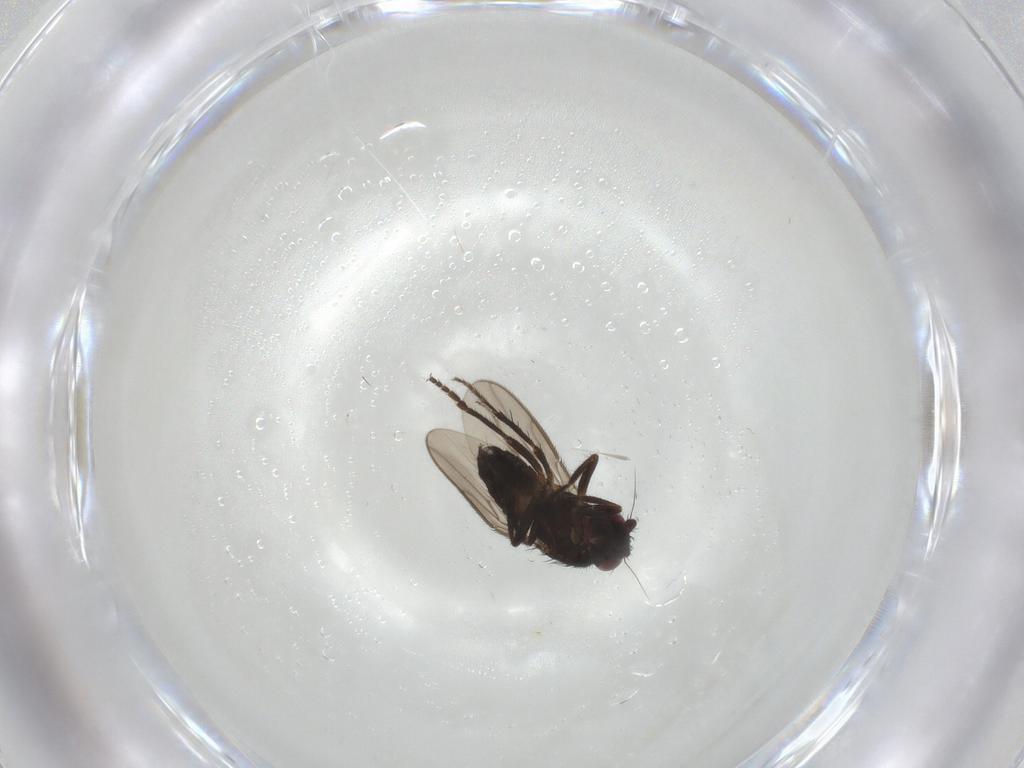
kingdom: Animalia
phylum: Arthropoda
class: Insecta
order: Diptera
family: Sphaeroceridae
